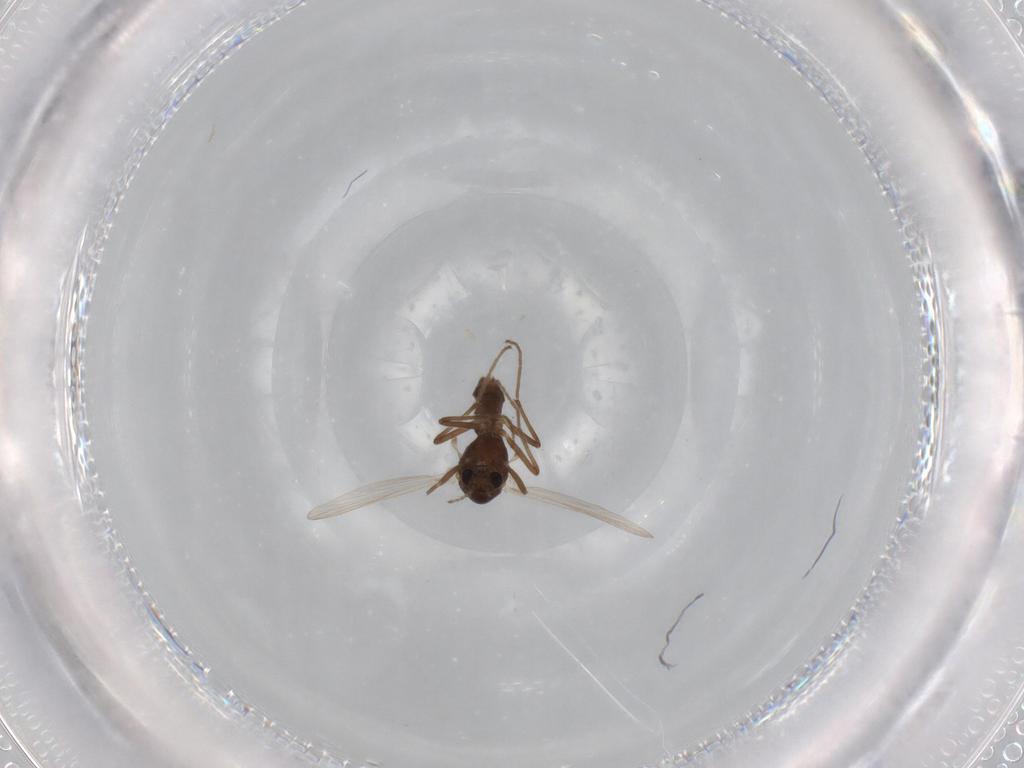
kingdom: Animalia
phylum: Arthropoda
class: Insecta
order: Diptera
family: Chironomidae
